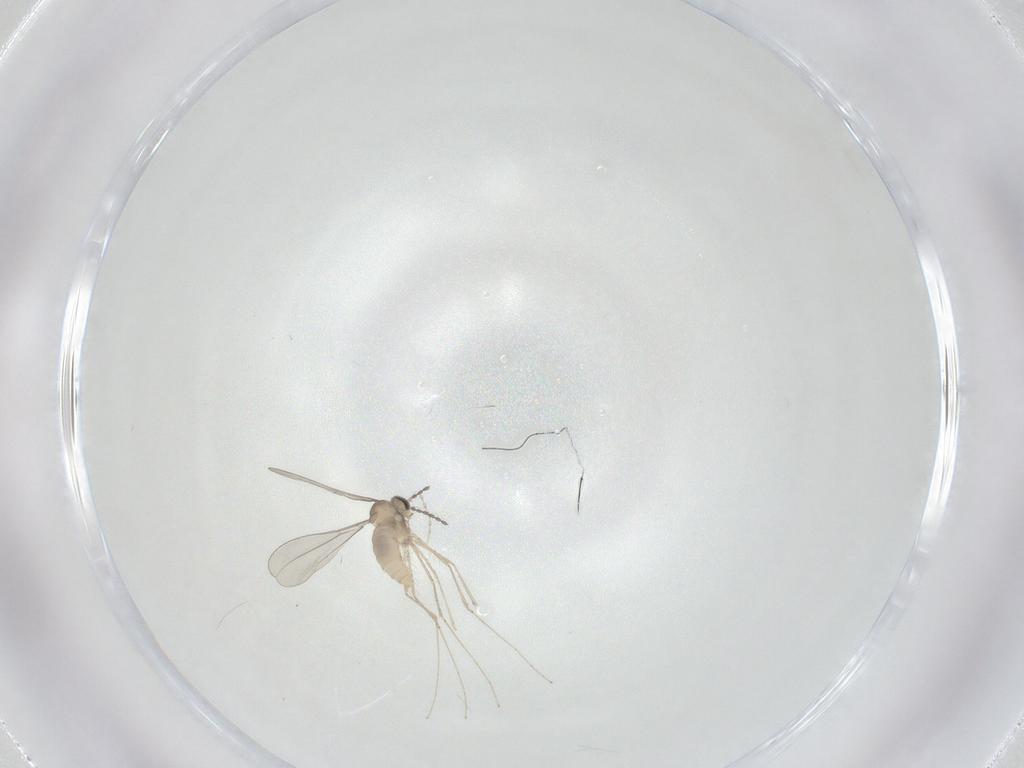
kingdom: Animalia
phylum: Arthropoda
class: Insecta
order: Diptera
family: Cecidomyiidae
